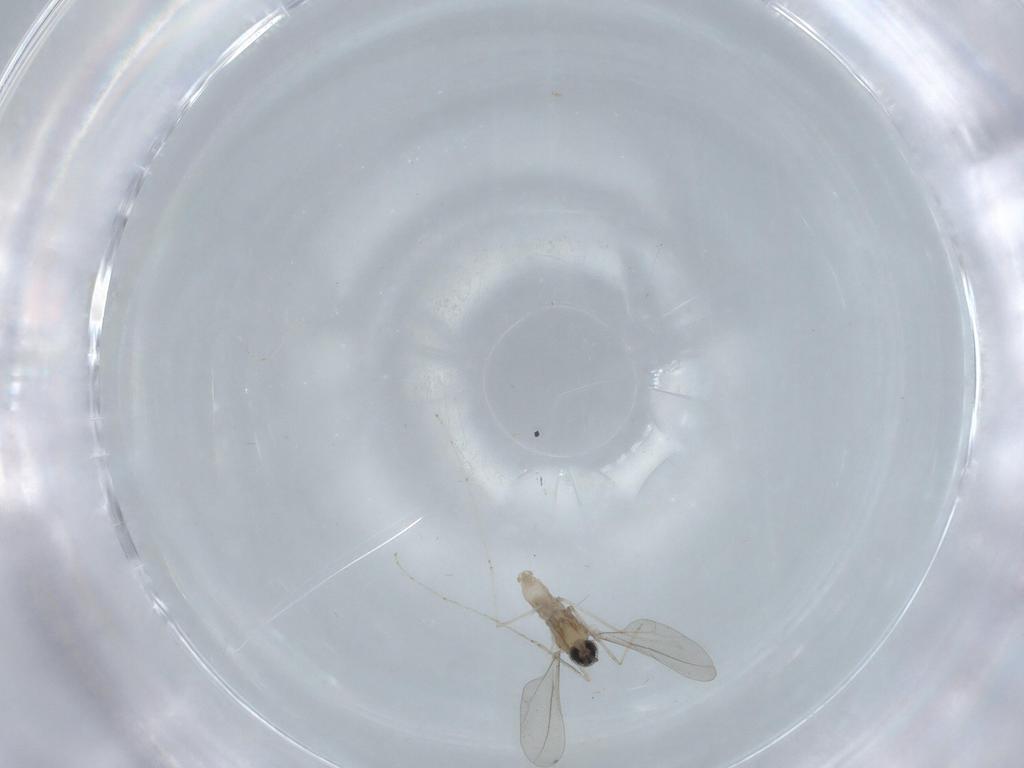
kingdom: Animalia
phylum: Arthropoda
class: Insecta
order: Diptera
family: Cecidomyiidae
